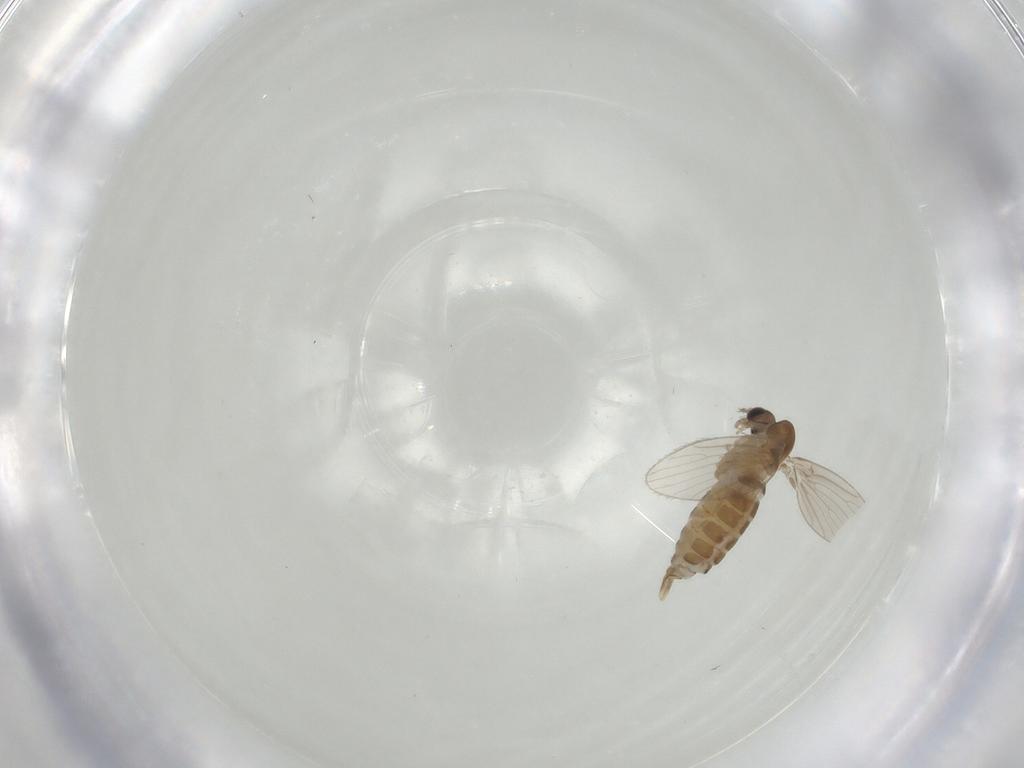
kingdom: Animalia
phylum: Arthropoda
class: Insecta
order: Diptera
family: Psychodidae
